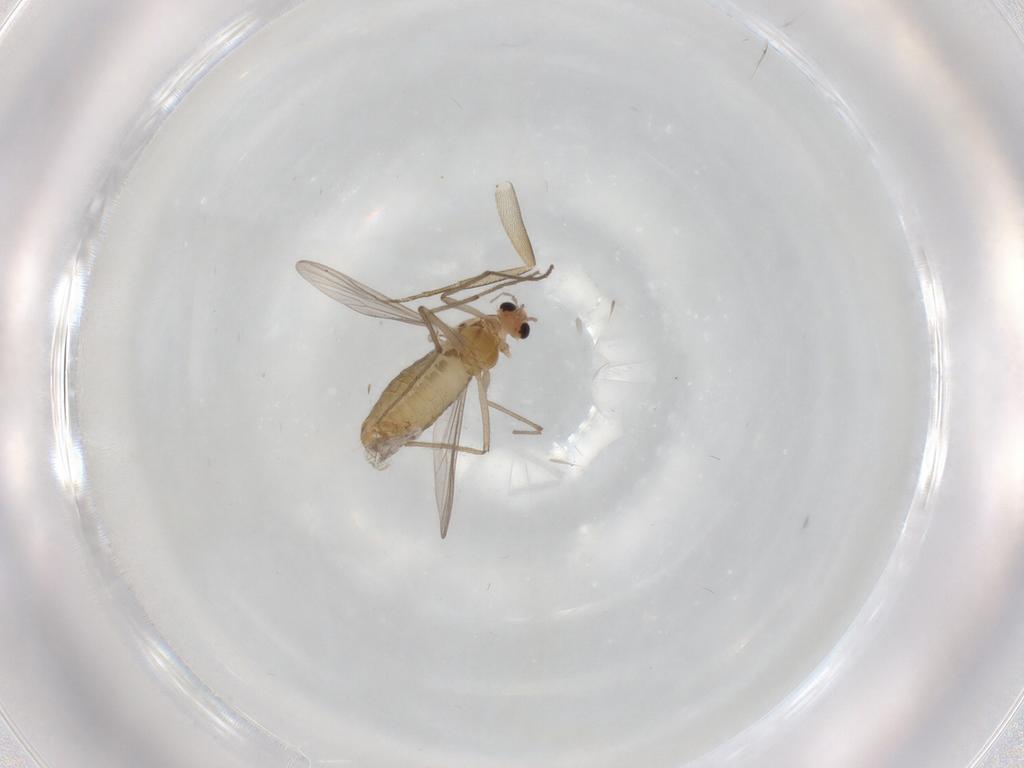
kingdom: Animalia
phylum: Arthropoda
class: Insecta
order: Diptera
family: Chironomidae
